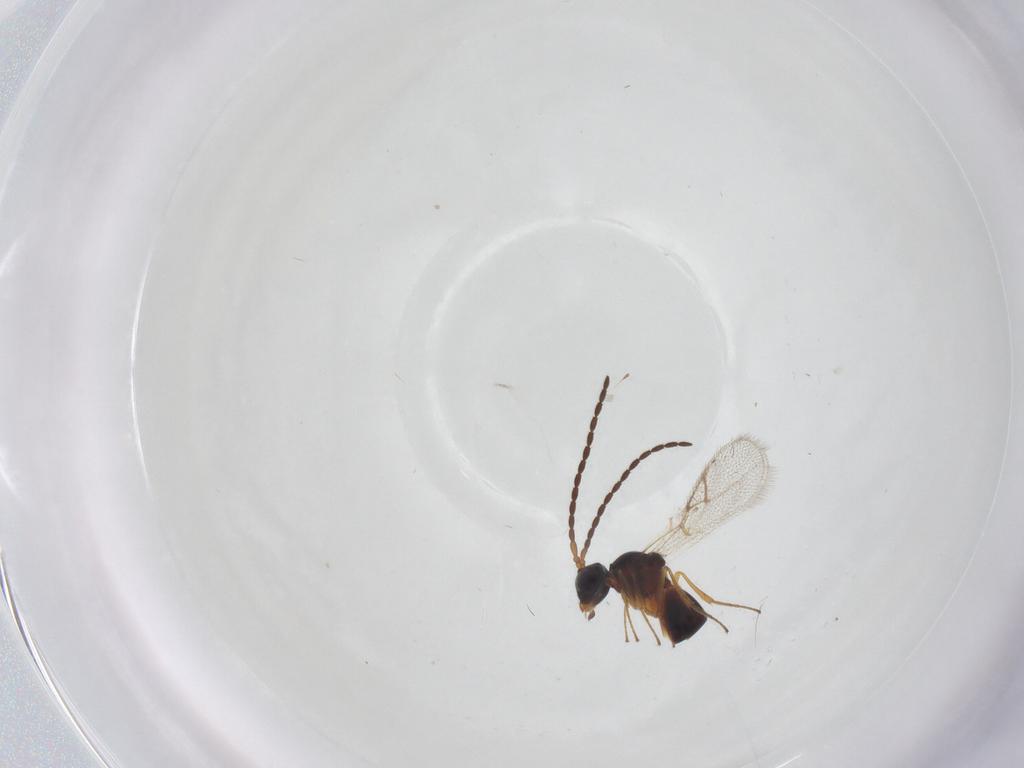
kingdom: Animalia
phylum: Arthropoda
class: Insecta
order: Hymenoptera
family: Figitidae
